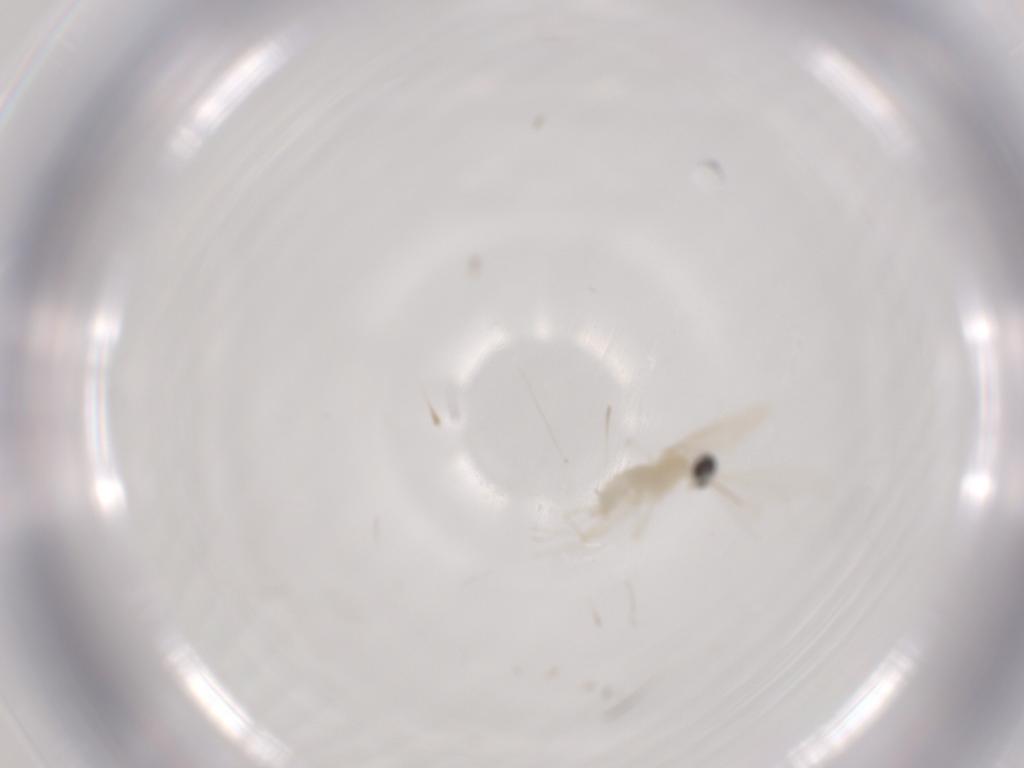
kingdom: Animalia
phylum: Arthropoda
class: Insecta
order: Diptera
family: Cecidomyiidae
